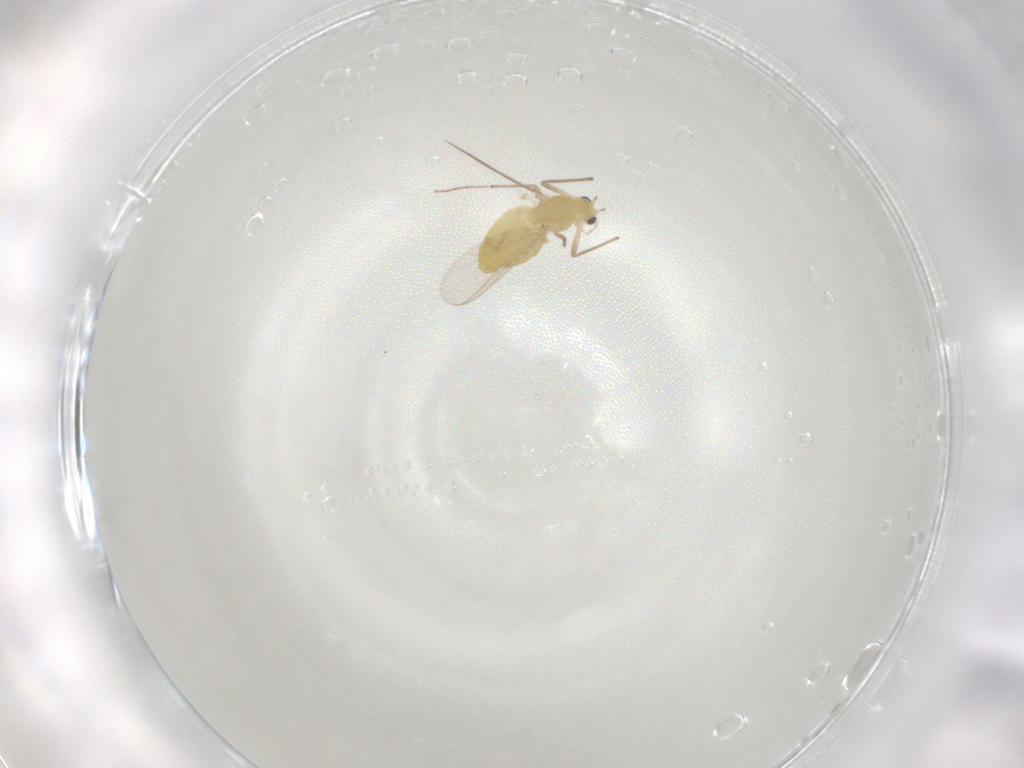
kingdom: Animalia
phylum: Arthropoda
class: Insecta
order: Diptera
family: Chironomidae
